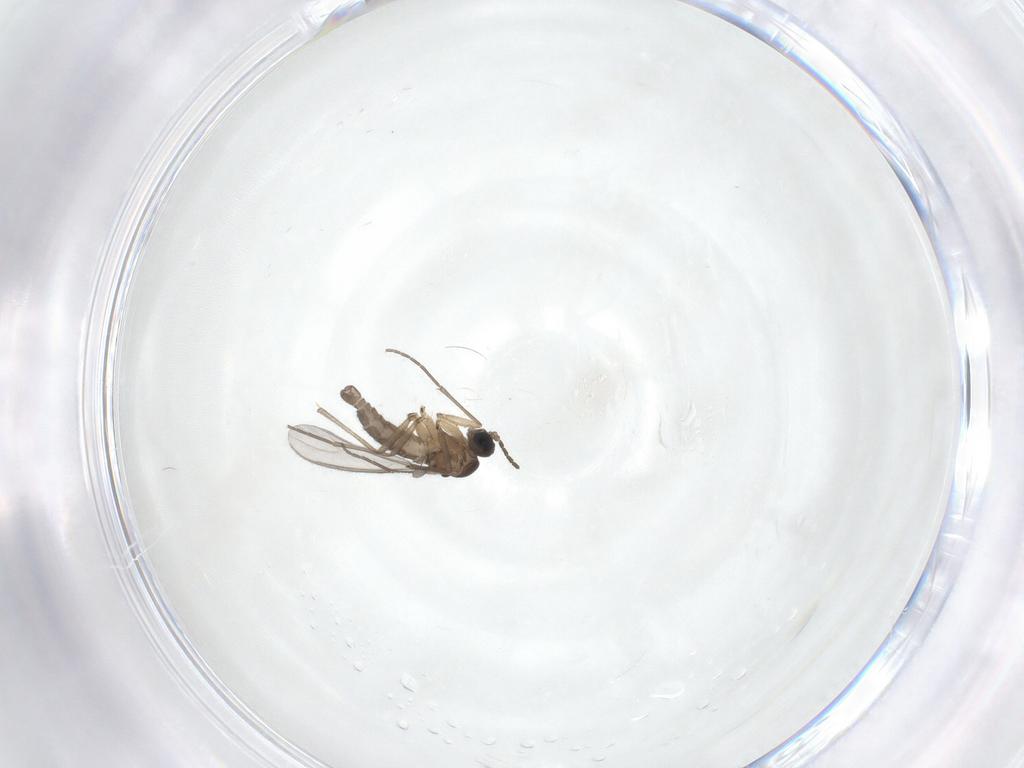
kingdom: Animalia
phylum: Arthropoda
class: Insecta
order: Diptera
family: Sciaridae
